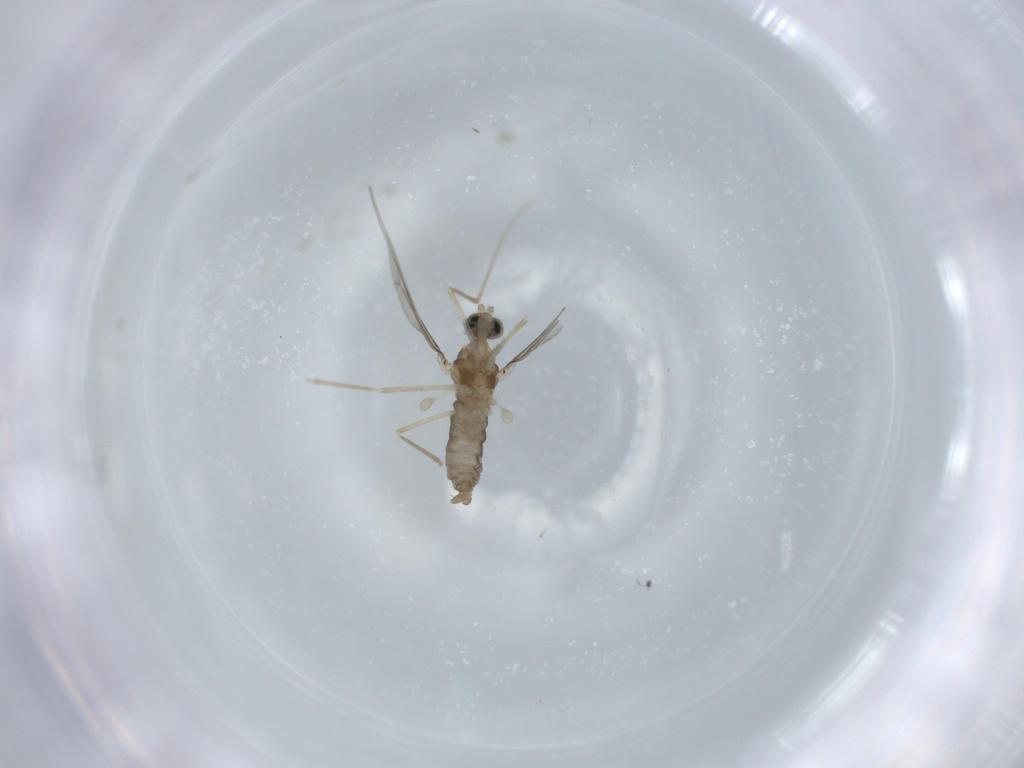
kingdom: Animalia
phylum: Arthropoda
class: Insecta
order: Diptera
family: Cecidomyiidae
